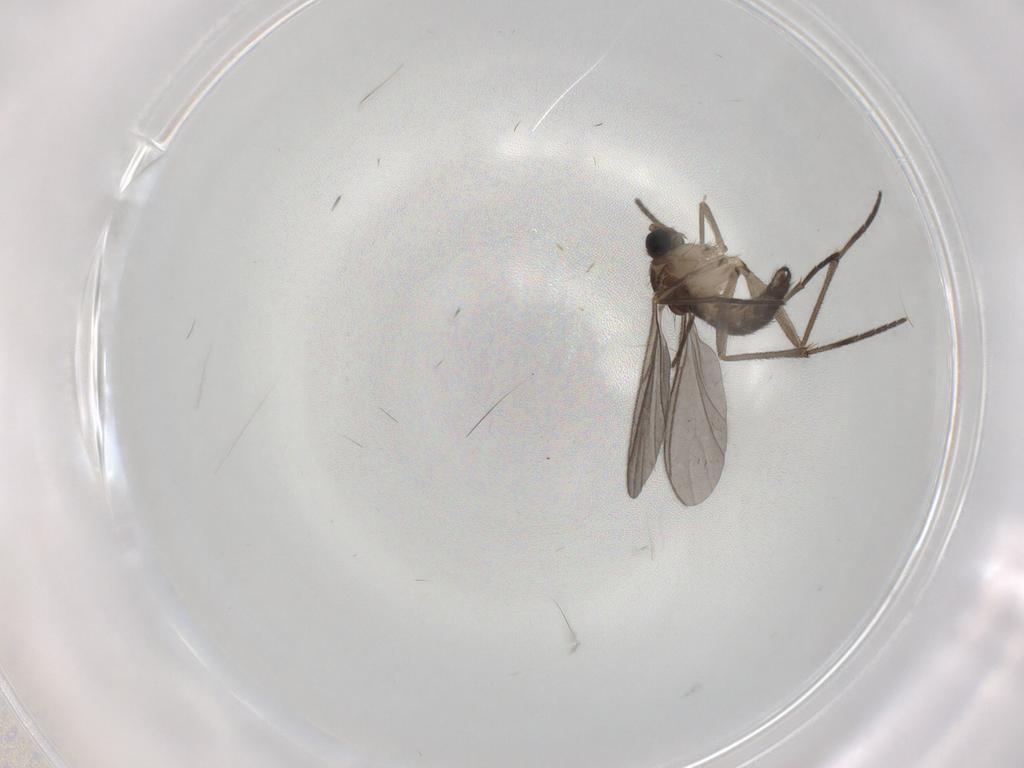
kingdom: Animalia
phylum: Arthropoda
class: Insecta
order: Diptera
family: Sciaridae
